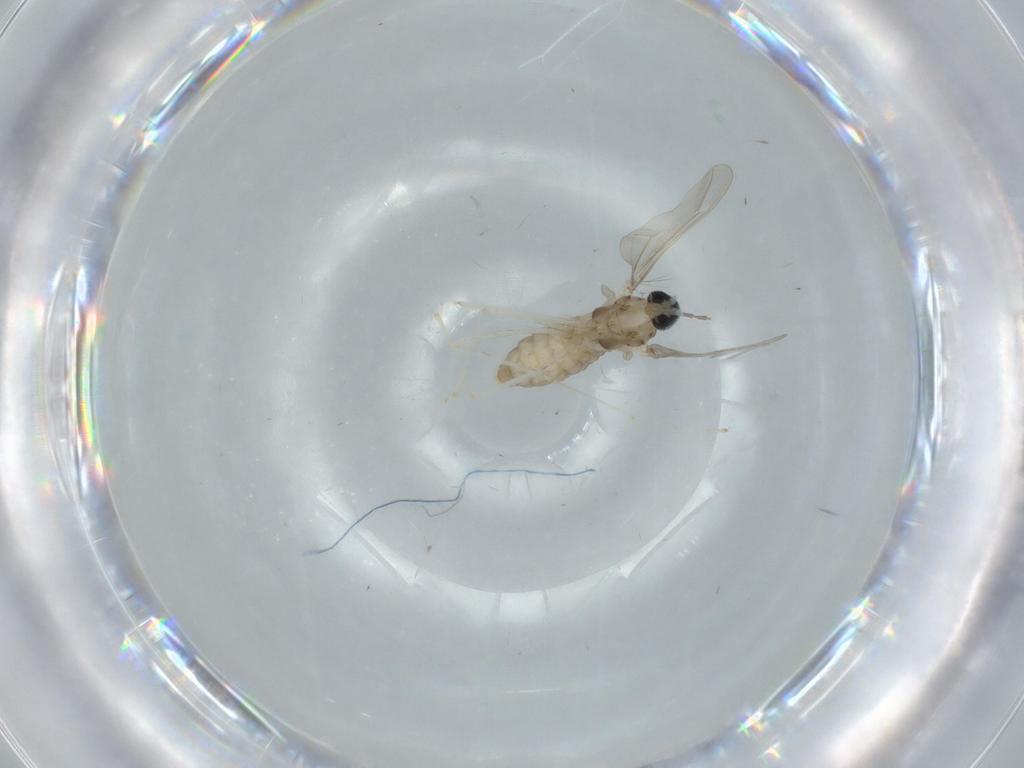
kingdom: Animalia
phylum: Arthropoda
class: Insecta
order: Diptera
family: Cecidomyiidae
